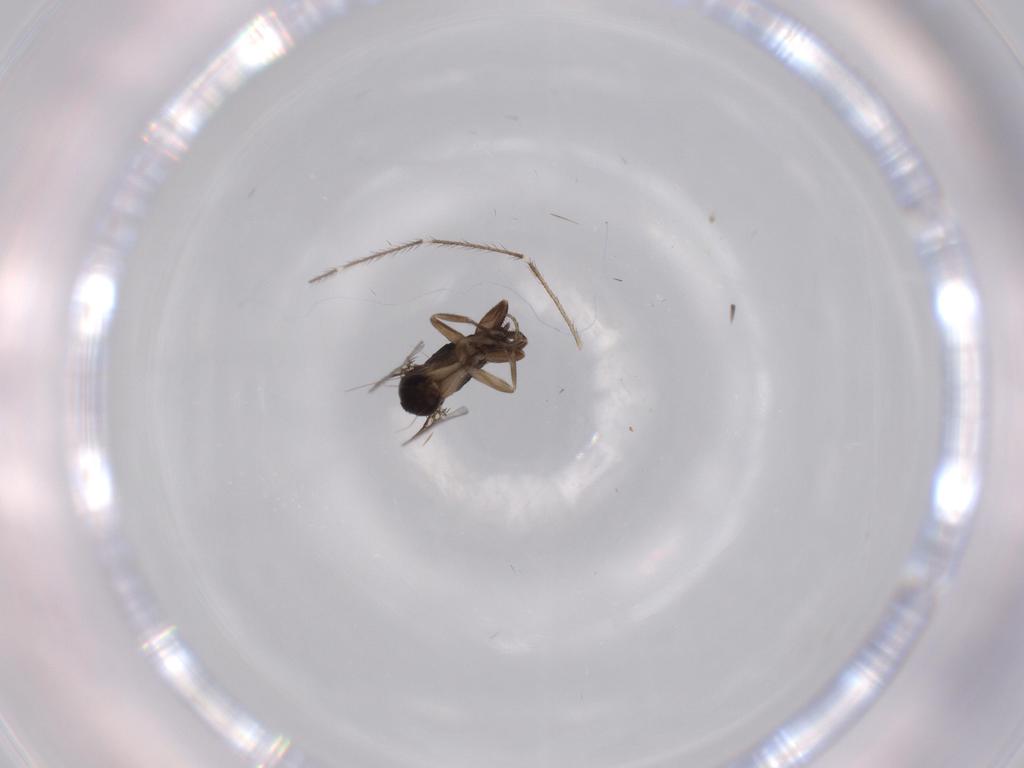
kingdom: Animalia
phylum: Arthropoda
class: Insecta
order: Diptera
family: Phoridae
